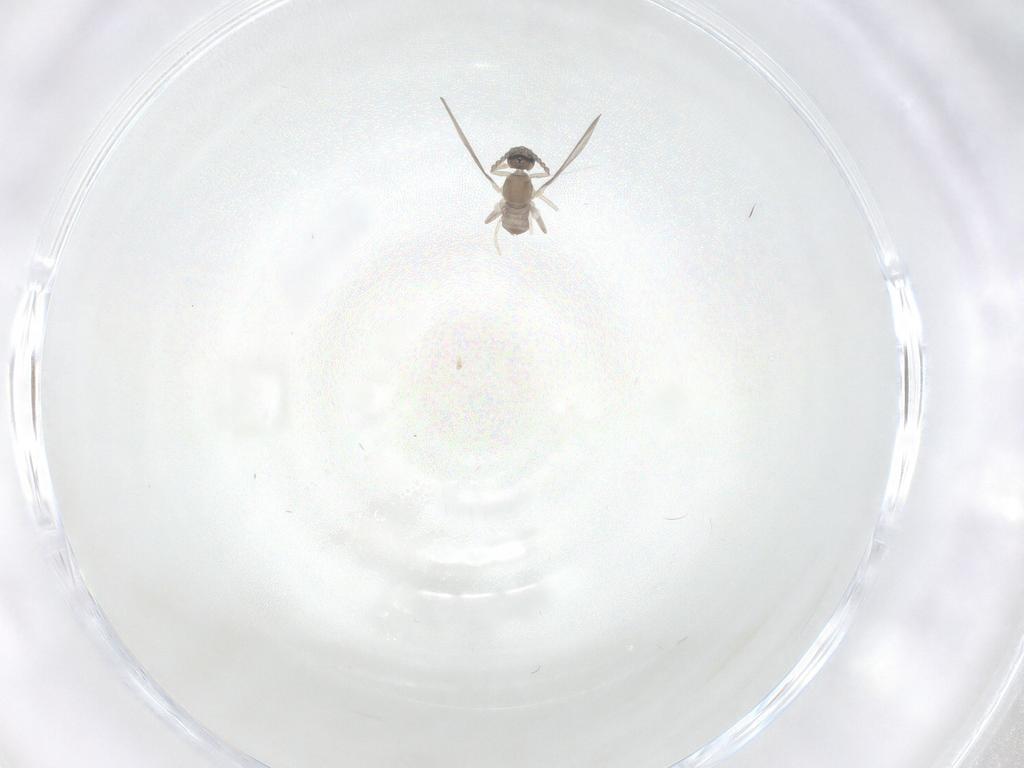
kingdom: Animalia
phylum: Arthropoda
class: Insecta
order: Diptera
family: Cecidomyiidae
